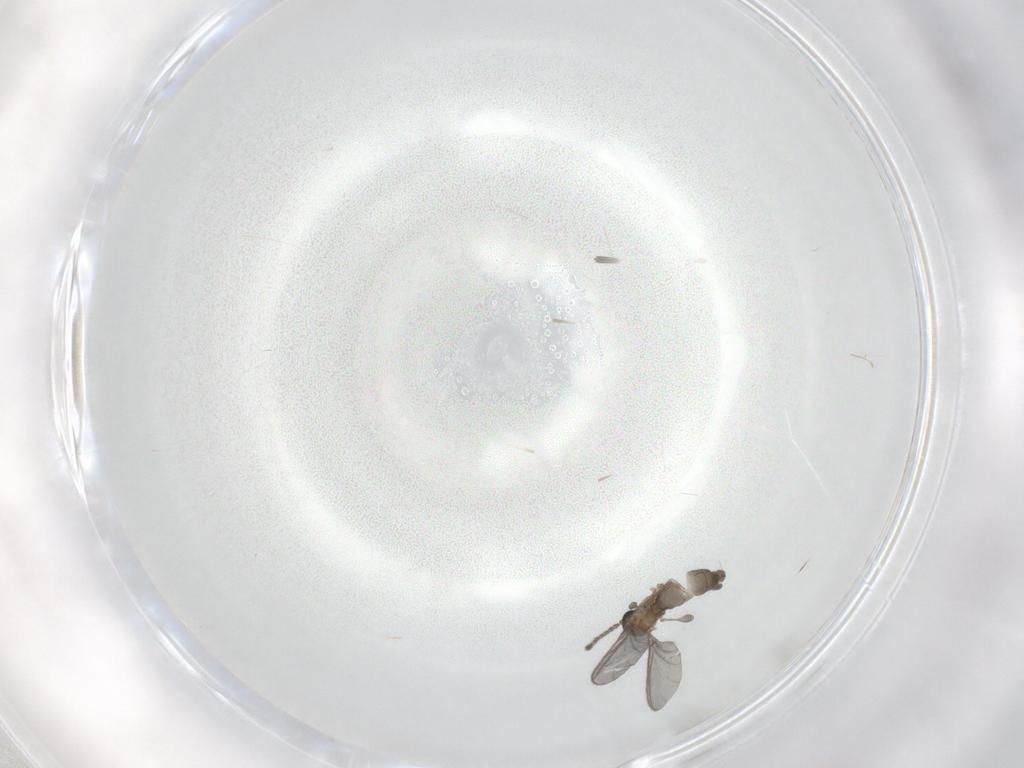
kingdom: Animalia
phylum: Arthropoda
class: Insecta
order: Diptera
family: Sciaridae
